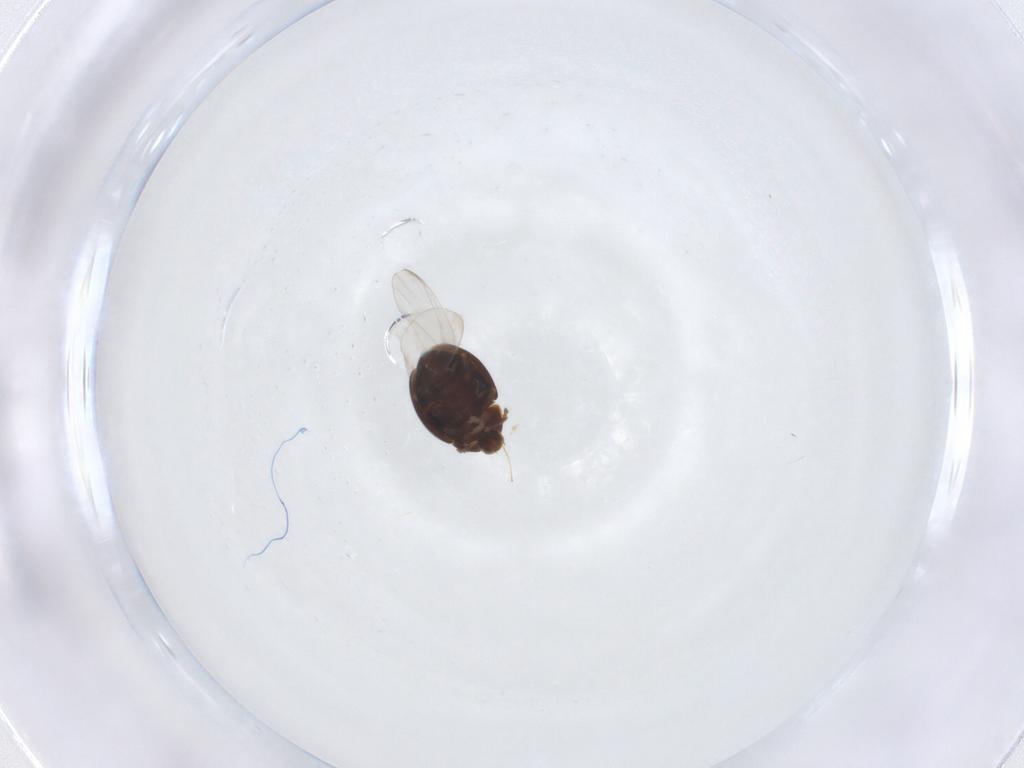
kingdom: Animalia
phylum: Arthropoda
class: Insecta
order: Coleoptera
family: Corylophidae
